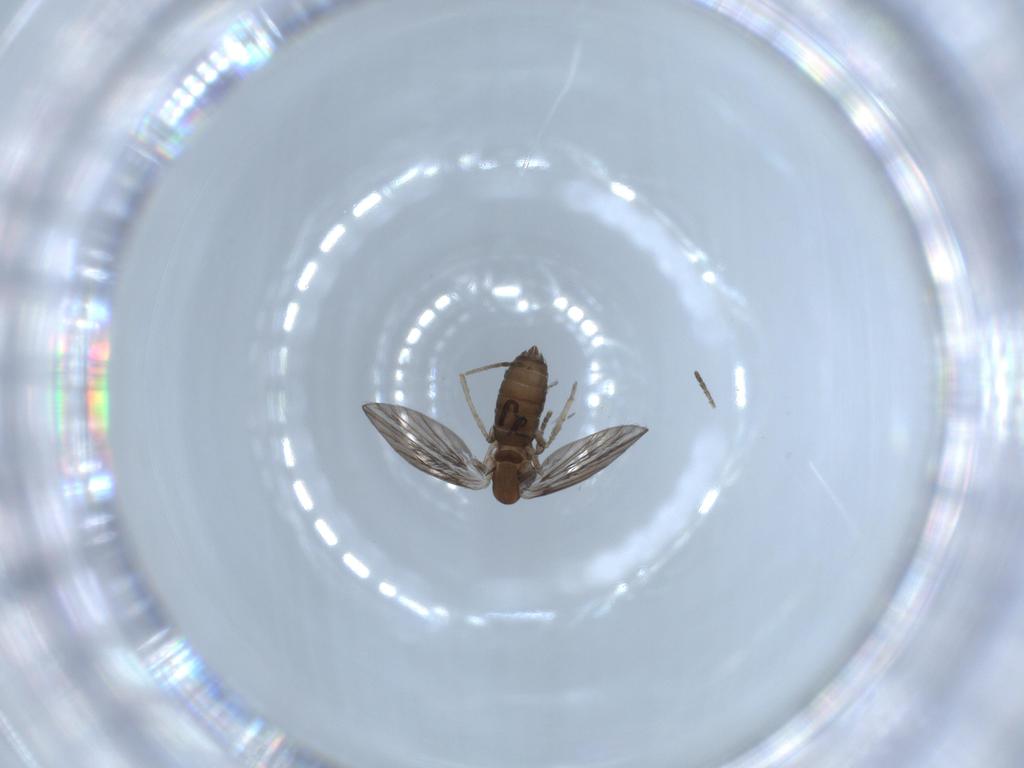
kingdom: Animalia
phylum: Arthropoda
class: Insecta
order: Diptera
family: Psychodidae
